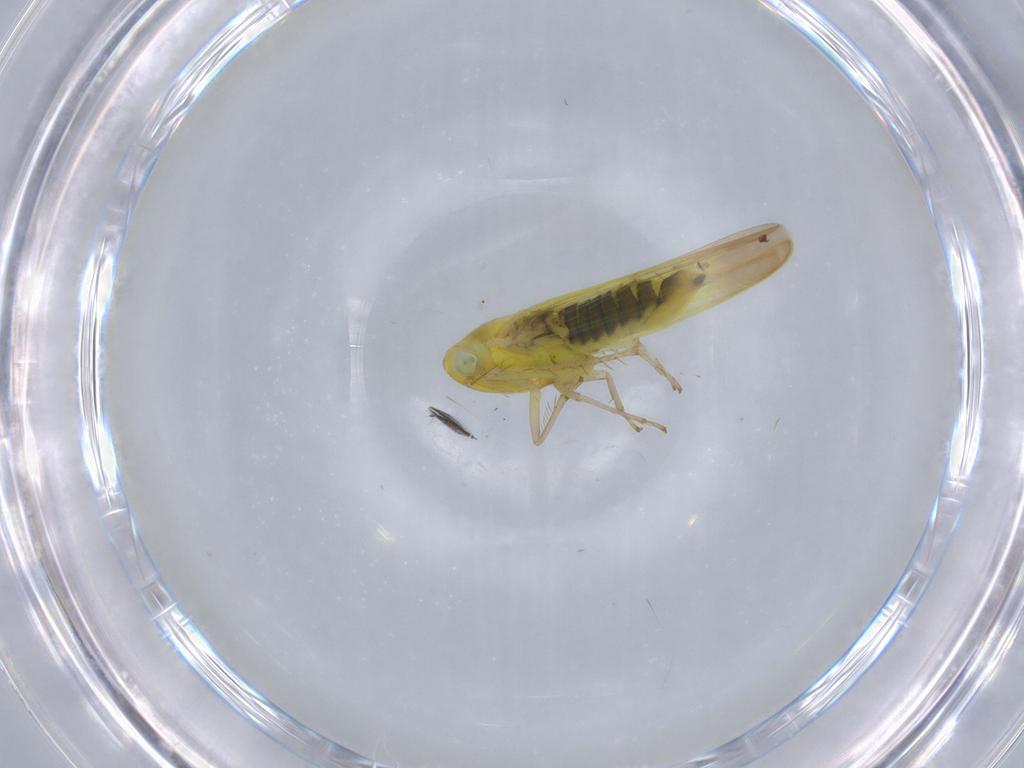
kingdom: Animalia
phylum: Arthropoda
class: Insecta
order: Hemiptera
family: Cicadellidae
